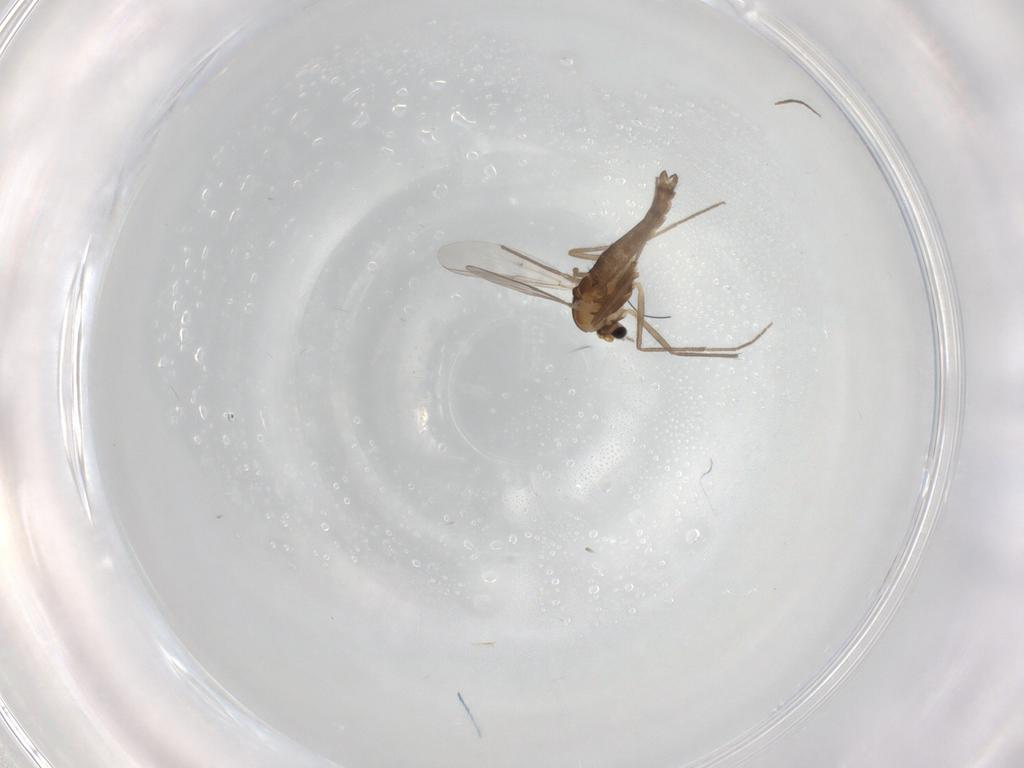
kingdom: Animalia
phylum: Arthropoda
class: Insecta
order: Diptera
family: Chironomidae
